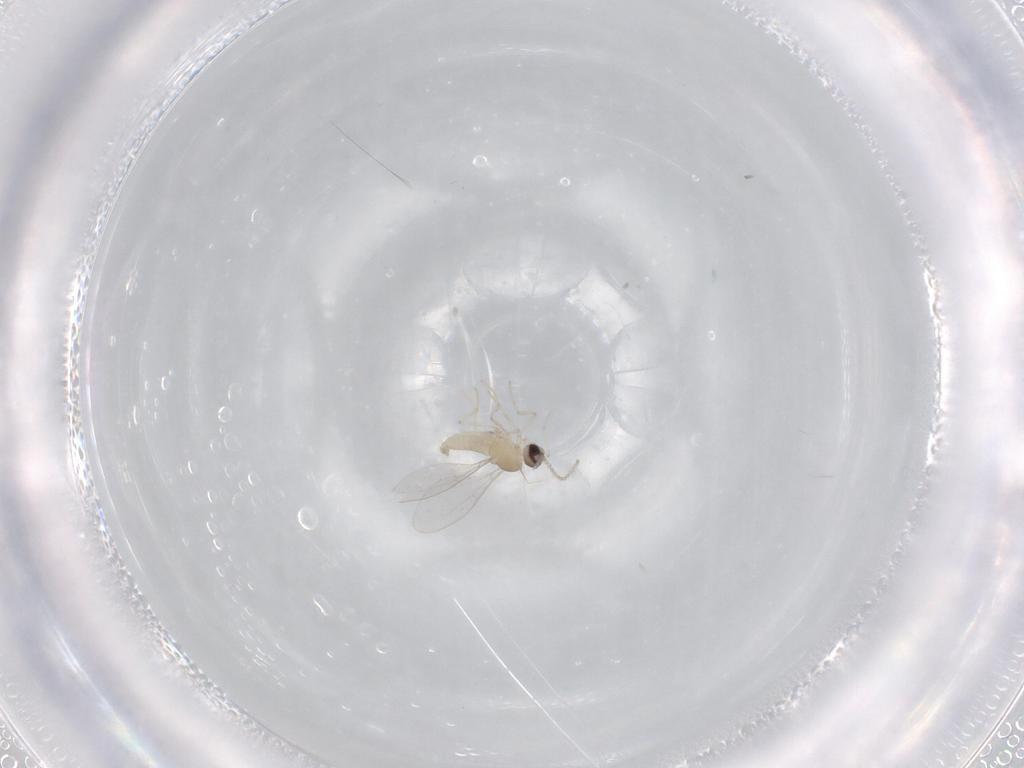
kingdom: Animalia
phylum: Arthropoda
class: Insecta
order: Diptera
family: Cecidomyiidae
